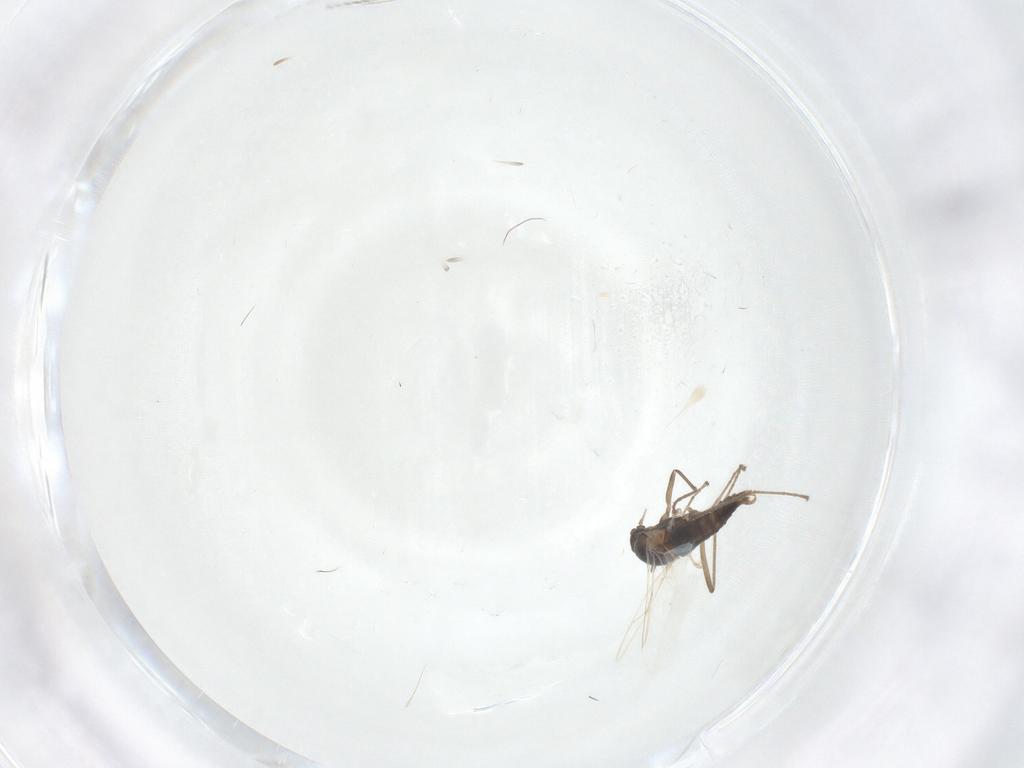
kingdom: Animalia
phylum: Arthropoda
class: Insecta
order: Diptera
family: Cecidomyiidae
